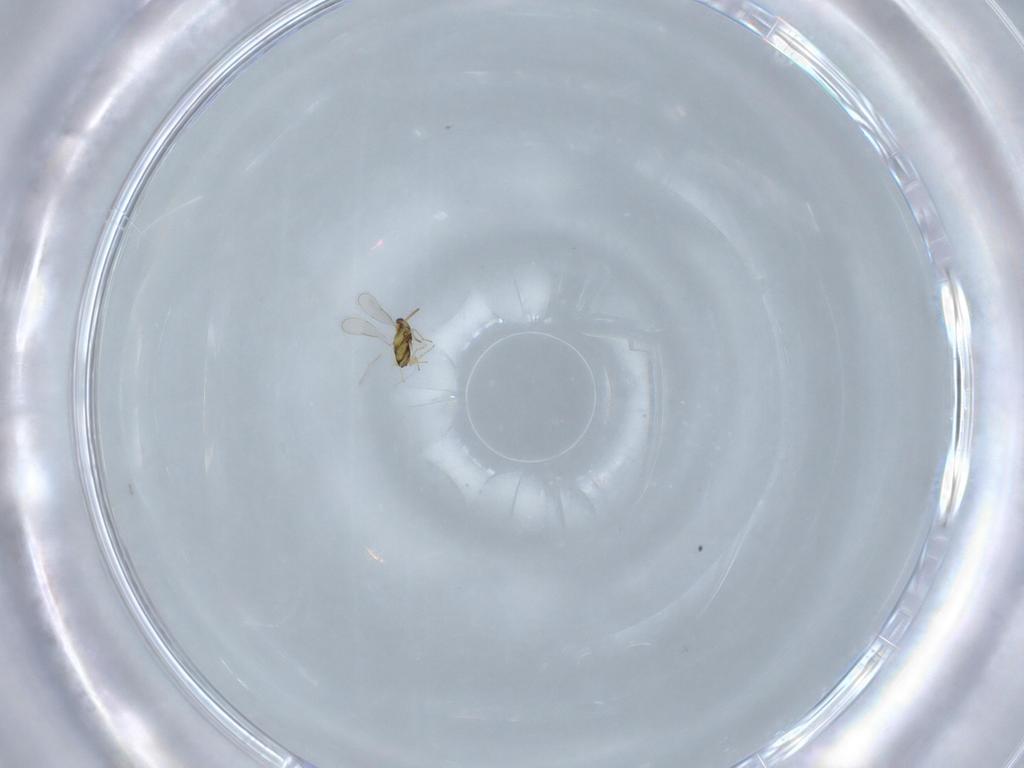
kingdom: Animalia
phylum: Arthropoda
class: Insecta
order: Hymenoptera
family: Aphelinidae
